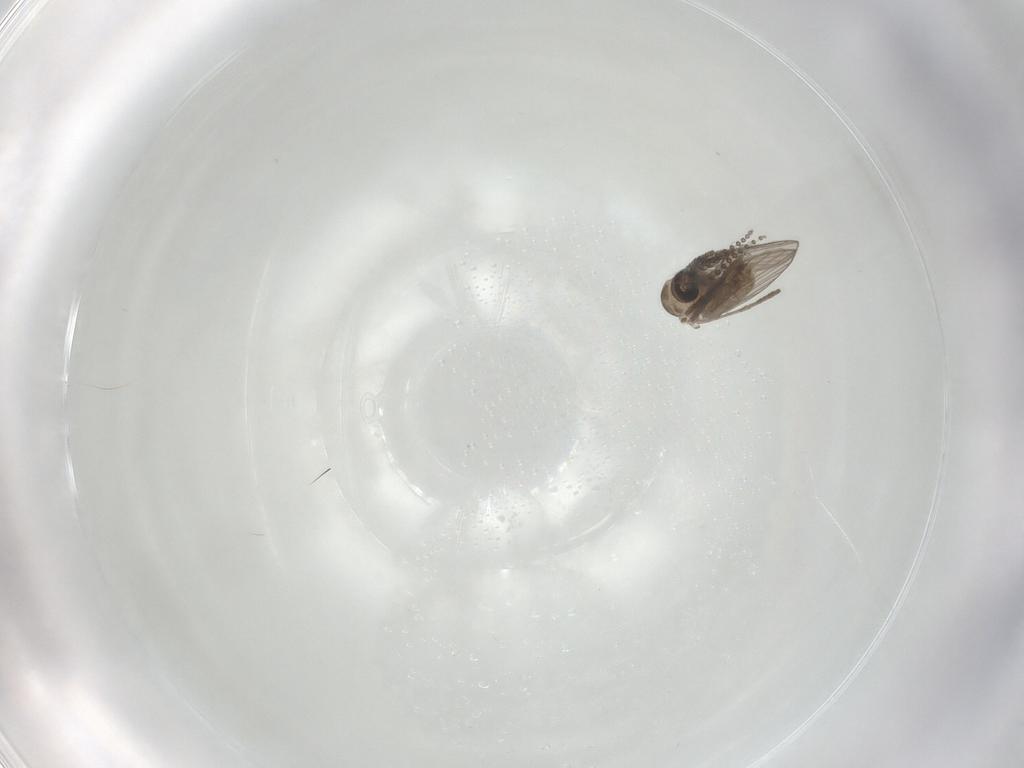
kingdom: Animalia
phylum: Arthropoda
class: Insecta
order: Diptera
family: Psychodidae
